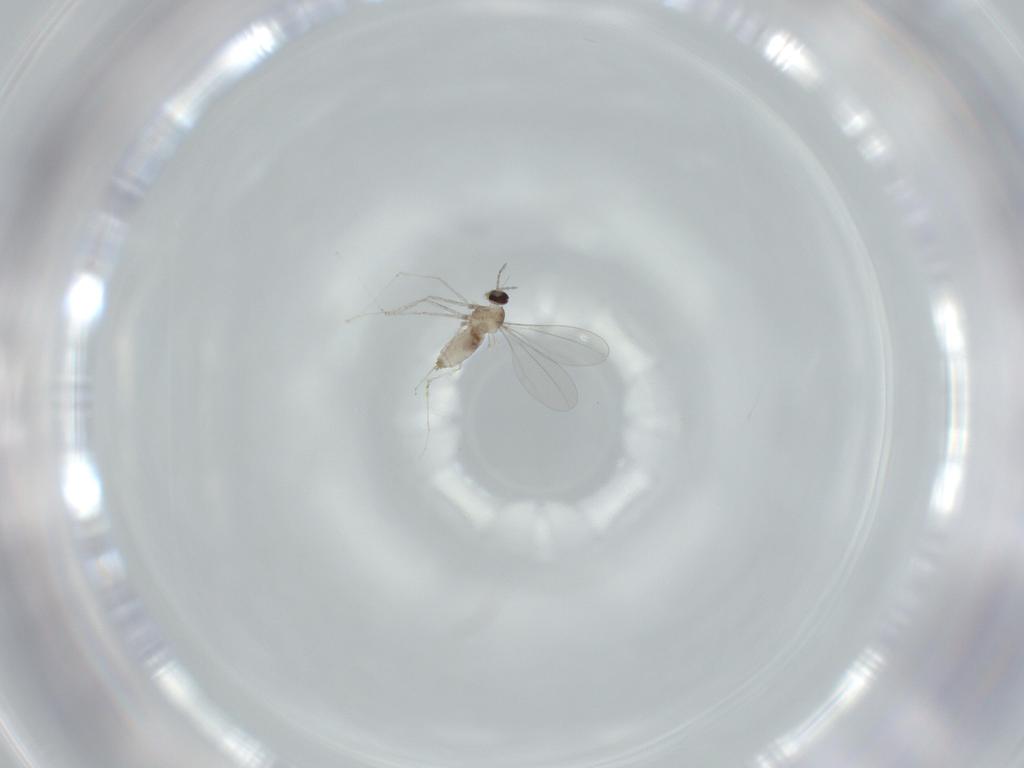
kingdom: Animalia
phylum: Arthropoda
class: Insecta
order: Diptera
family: Cecidomyiidae
